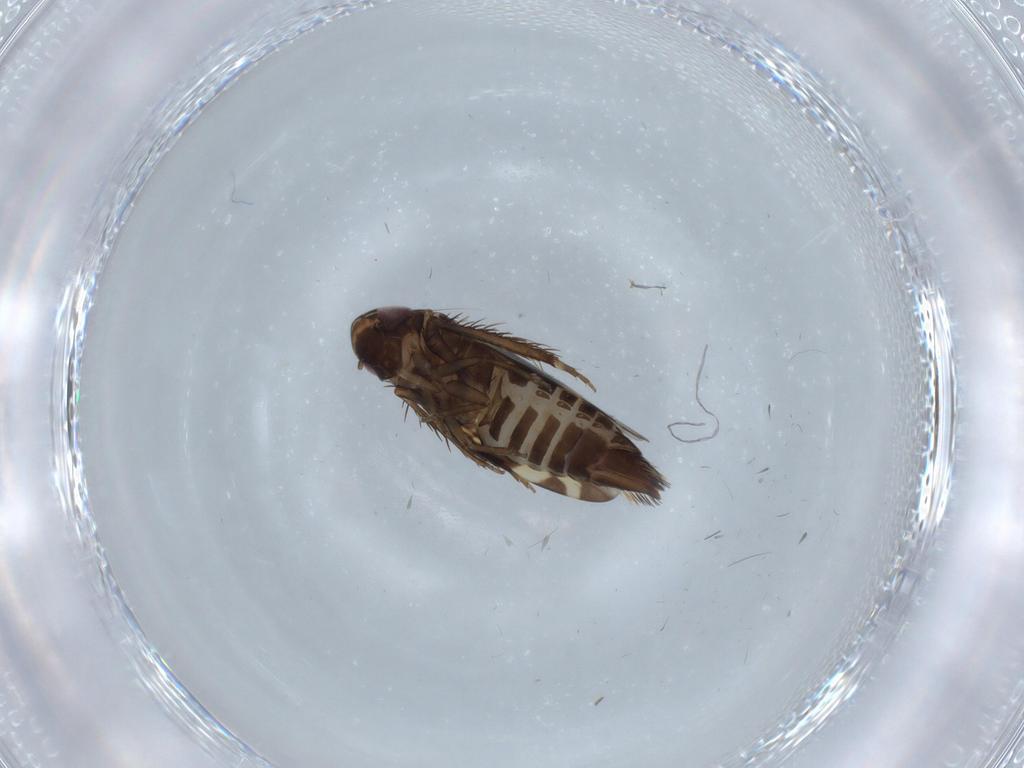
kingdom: Animalia
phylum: Arthropoda
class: Insecta
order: Hemiptera
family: Cicadellidae
